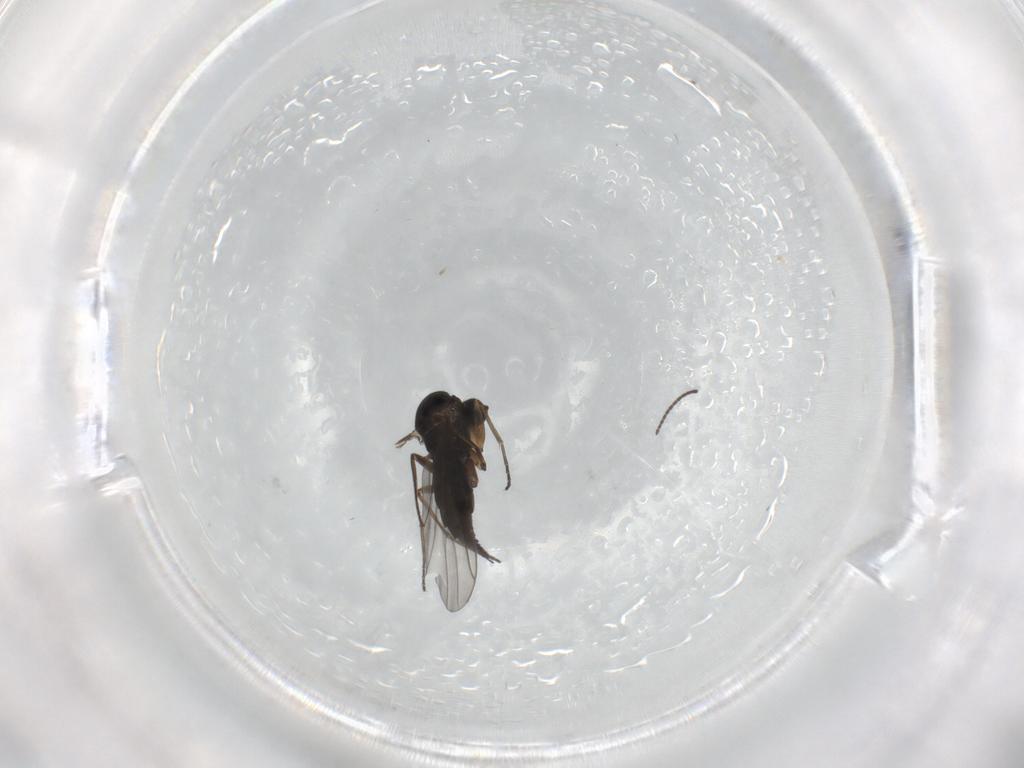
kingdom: Animalia
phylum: Arthropoda
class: Insecta
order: Diptera
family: Sciaridae
